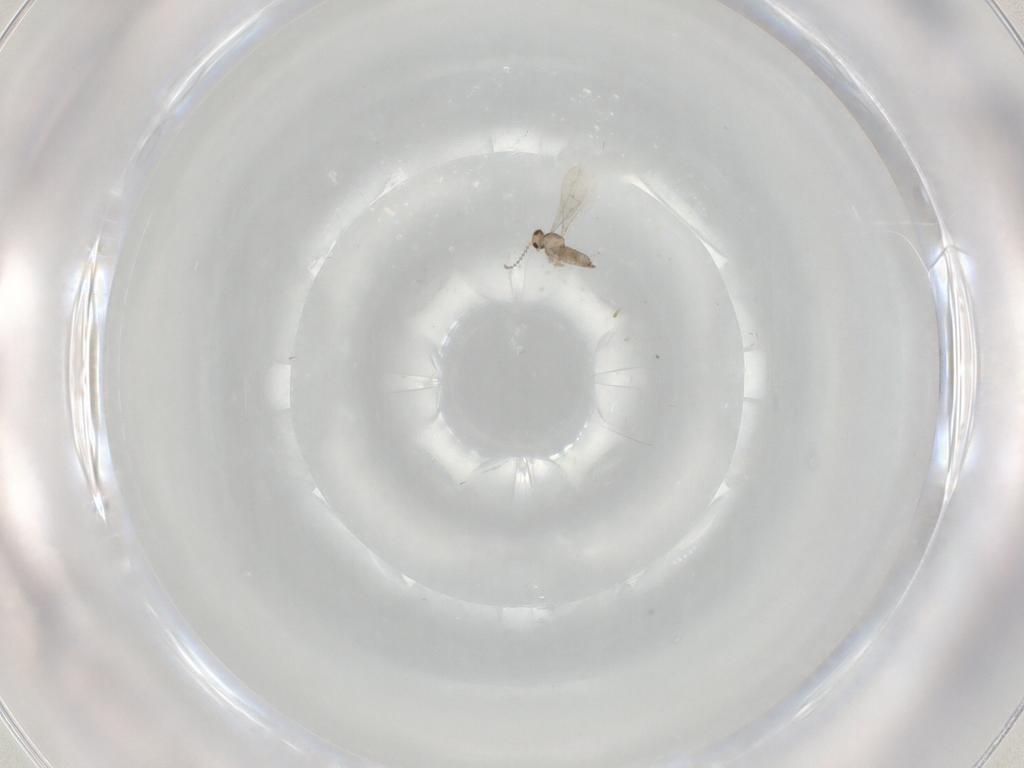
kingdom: Animalia
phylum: Arthropoda
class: Insecta
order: Diptera
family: Cecidomyiidae
